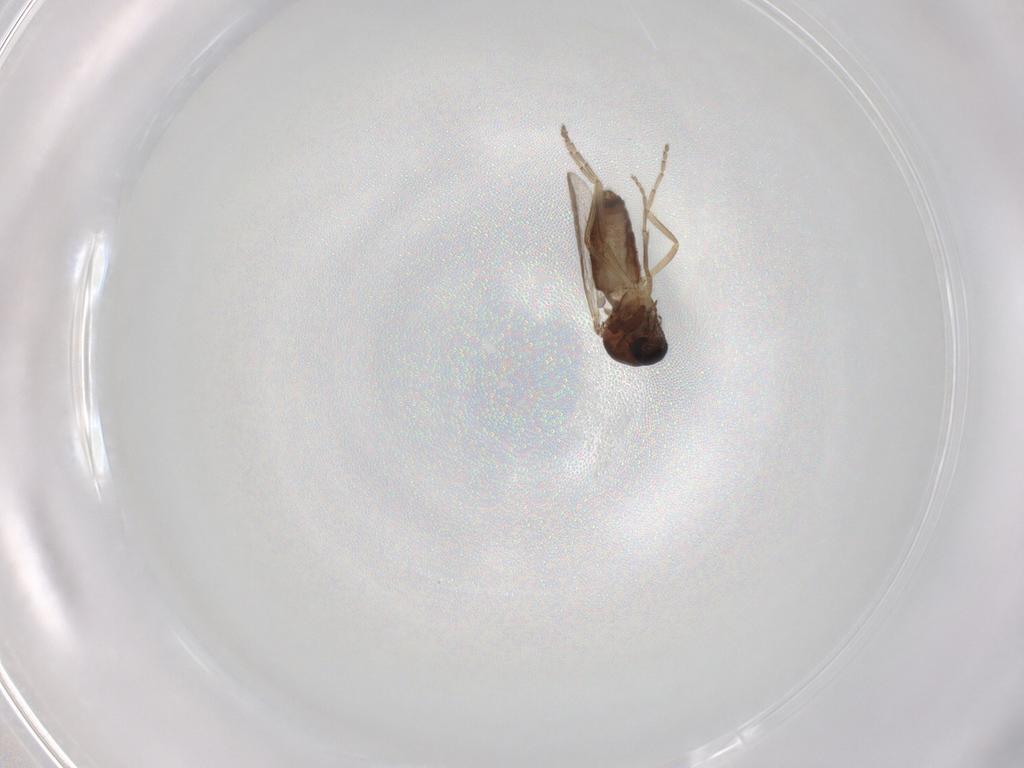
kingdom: Animalia
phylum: Arthropoda
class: Insecta
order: Diptera
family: Ceratopogonidae
